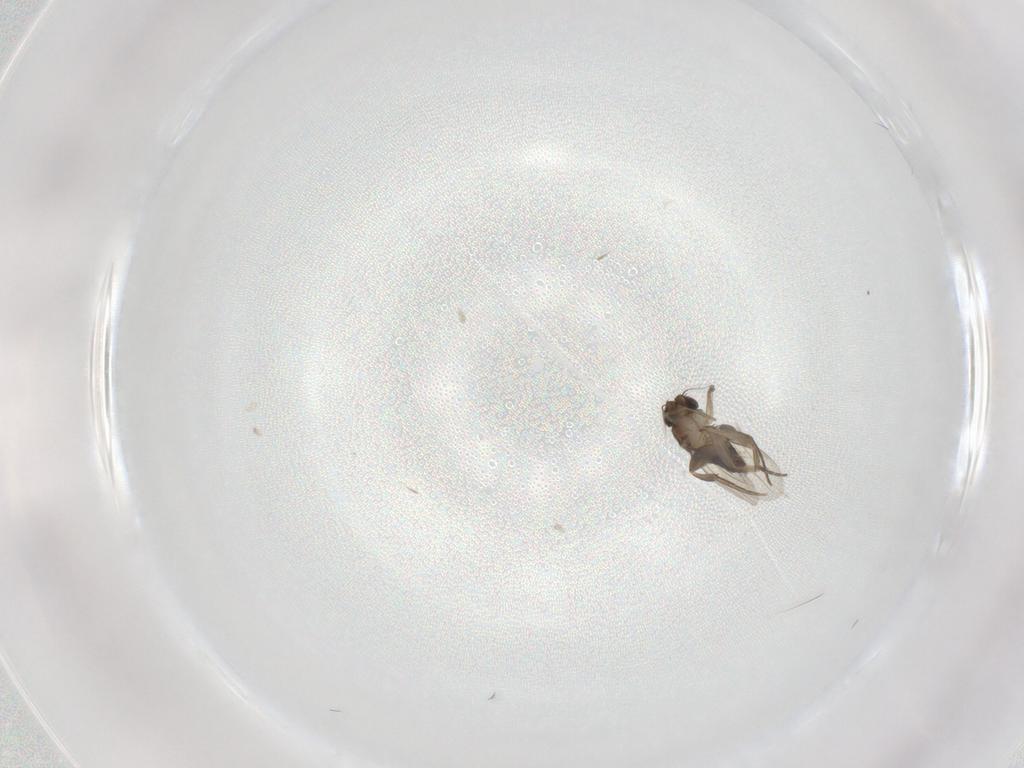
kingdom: Animalia
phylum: Arthropoda
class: Insecta
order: Diptera
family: Phoridae
